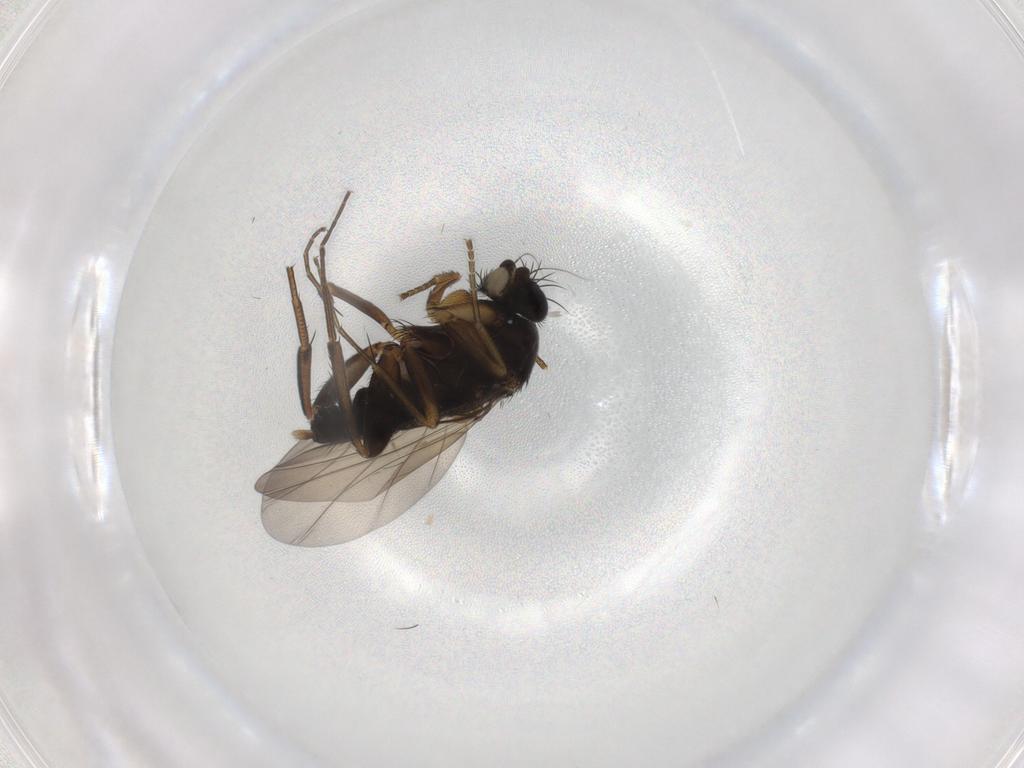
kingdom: Animalia
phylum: Arthropoda
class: Insecta
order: Diptera
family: Phoridae
